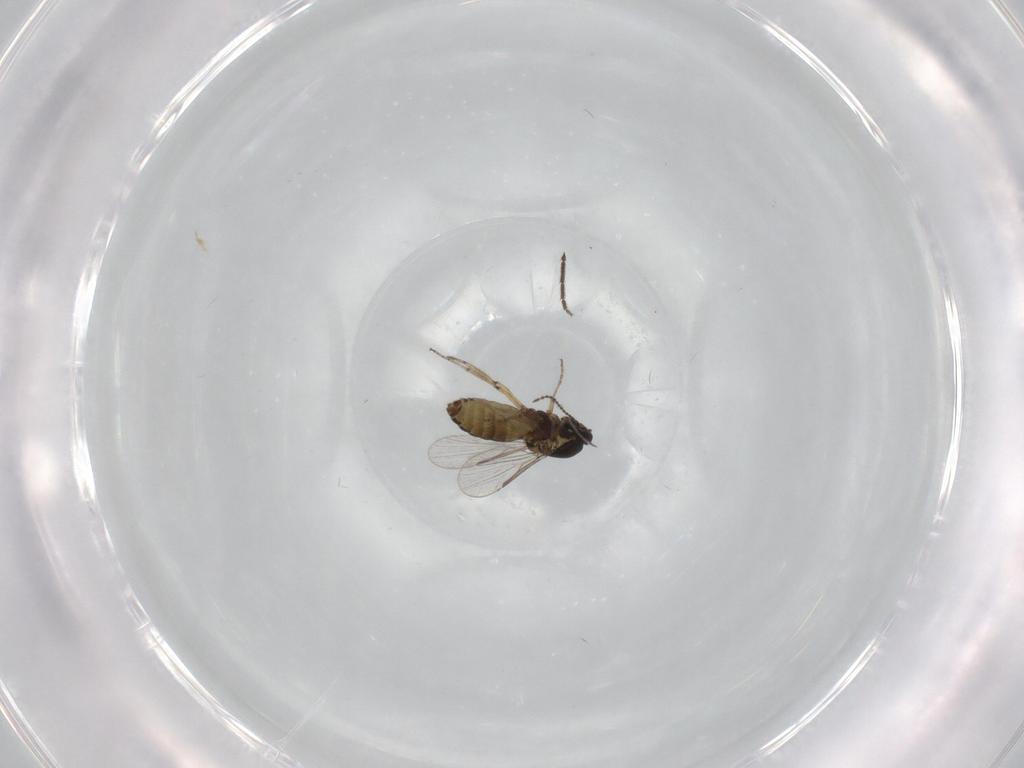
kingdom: Animalia
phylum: Arthropoda
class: Insecta
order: Diptera
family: Ceratopogonidae
